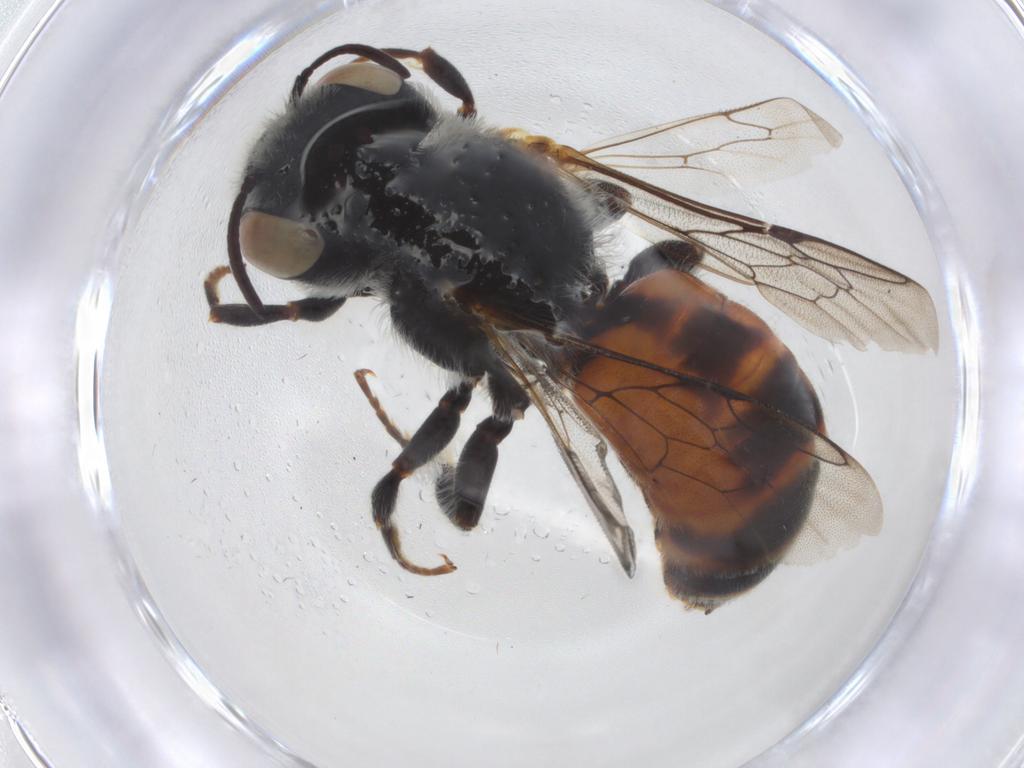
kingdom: Animalia
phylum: Arthropoda
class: Insecta
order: Hymenoptera
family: Megachilidae
